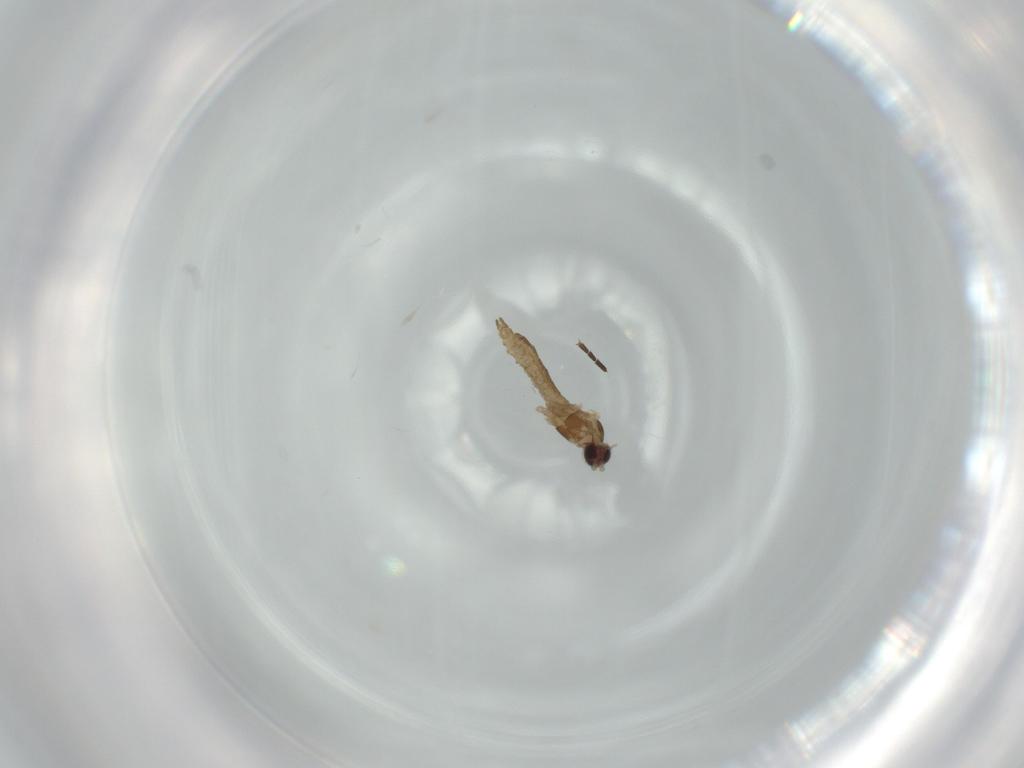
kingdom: Animalia
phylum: Arthropoda
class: Insecta
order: Diptera
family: Cecidomyiidae
